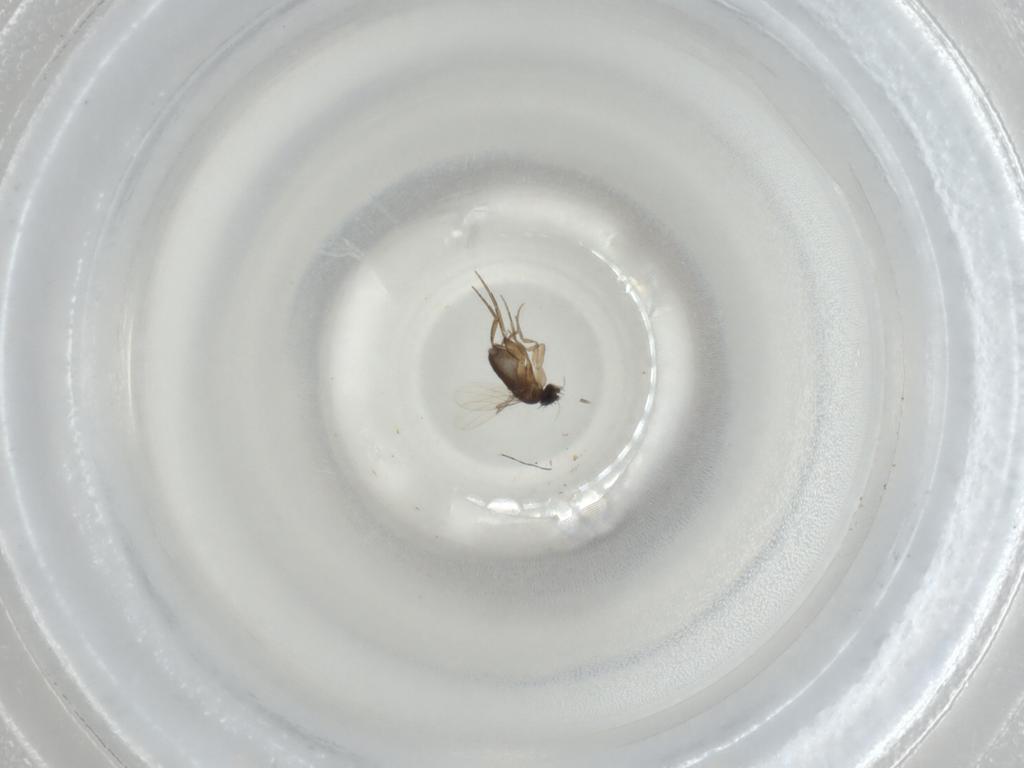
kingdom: Animalia
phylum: Arthropoda
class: Insecta
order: Diptera
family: Phoridae
